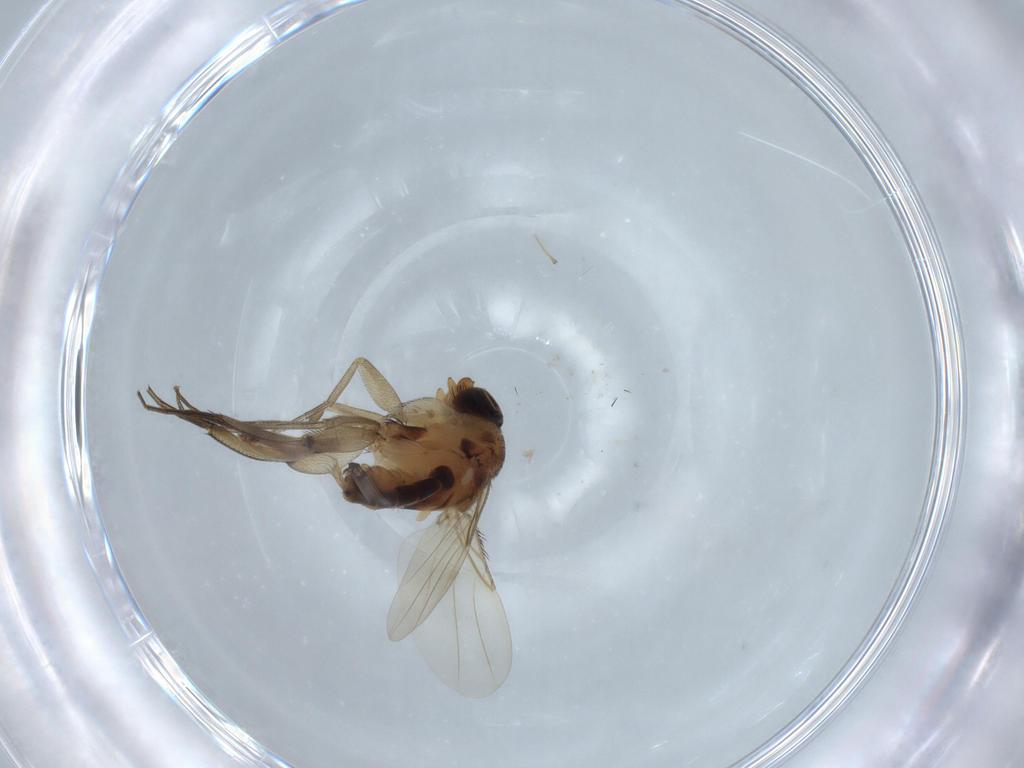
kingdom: Animalia
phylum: Arthropoda
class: Insecta
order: Diptera
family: Phoridae
